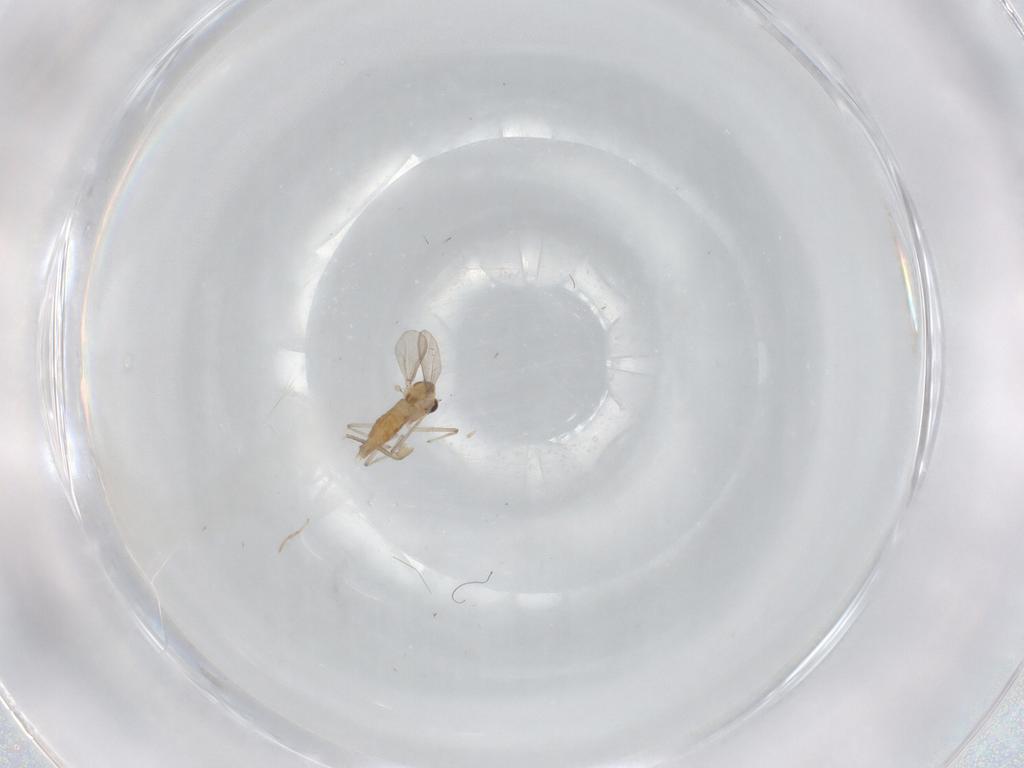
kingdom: Animalia
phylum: Arthropoda
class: Insecta
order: Diptera
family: Chironomidae
